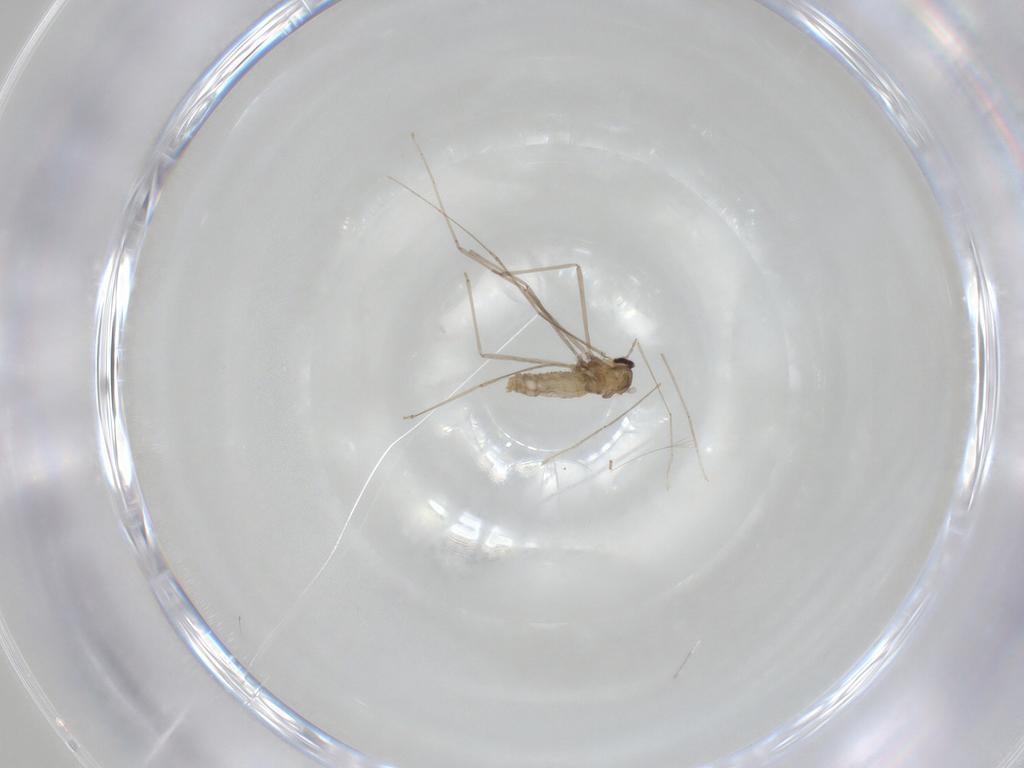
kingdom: Animalia
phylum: Arthropoda
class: Insecta
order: Diptera
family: Cecidomyiidae
